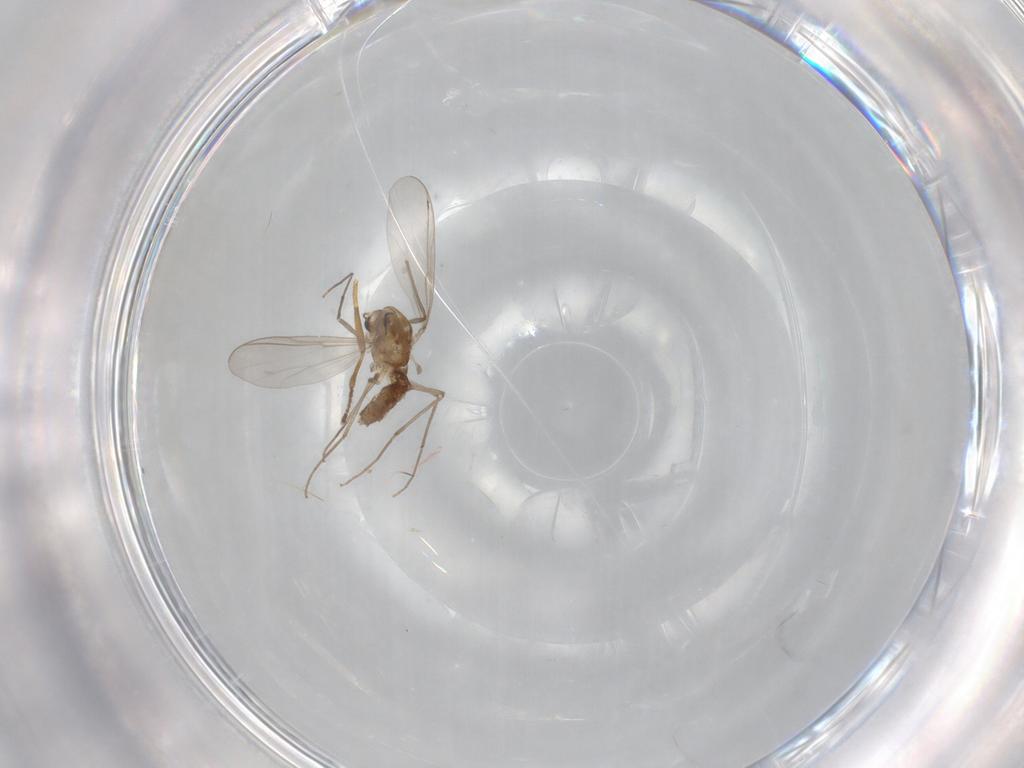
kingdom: Animalia
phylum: Arthropoda
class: Insecta
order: Diptera
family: Chironomidae
